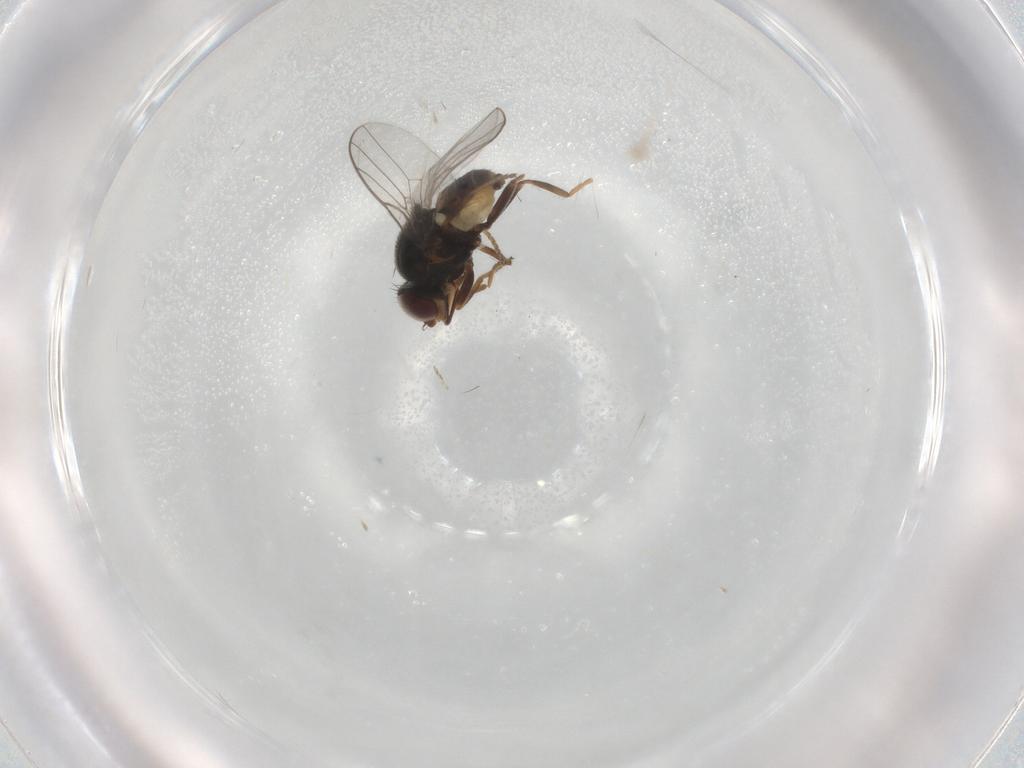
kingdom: Animalia
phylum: Arthropoda
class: Insecta
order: Diptera
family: Chloropidae
